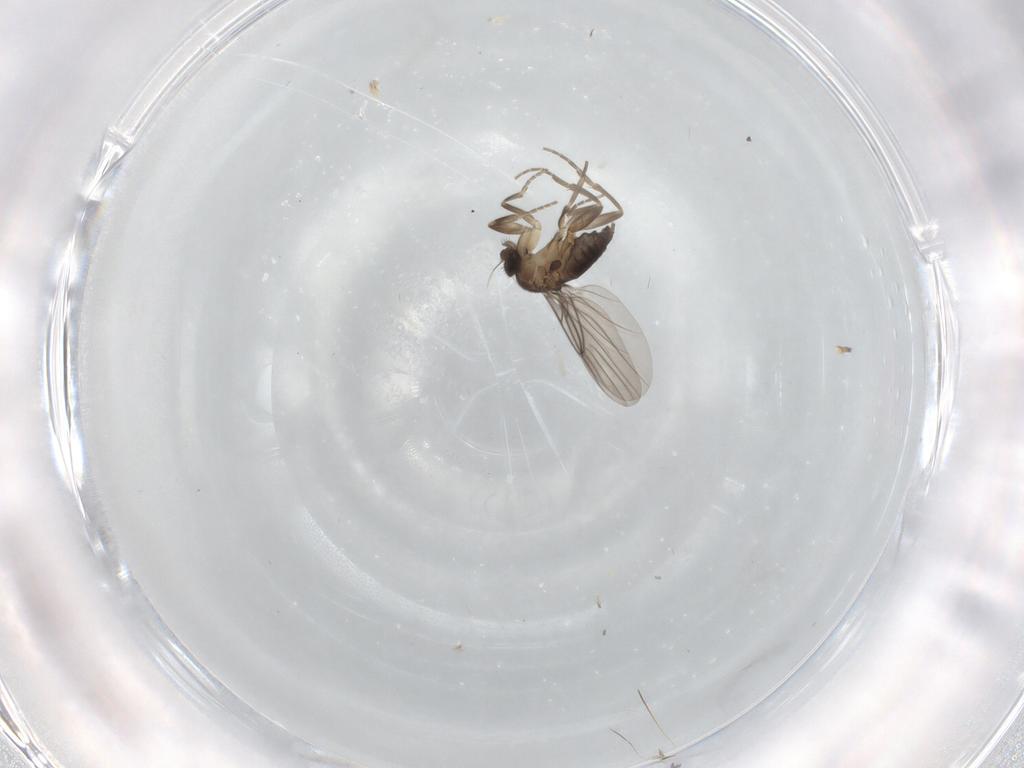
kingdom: Animalia
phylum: Arthropoda
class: Insecta
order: Diptera
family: Phoridae
